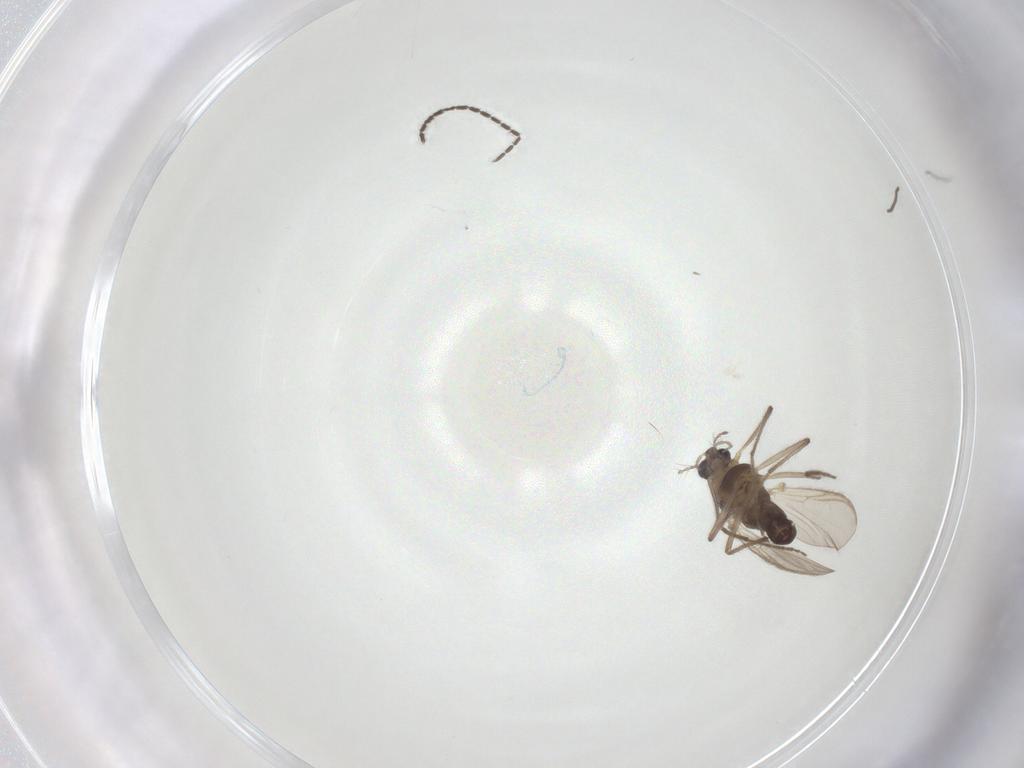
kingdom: Animalia
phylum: Arthropoda
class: Insecta
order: Diptera
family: Chironomidae
